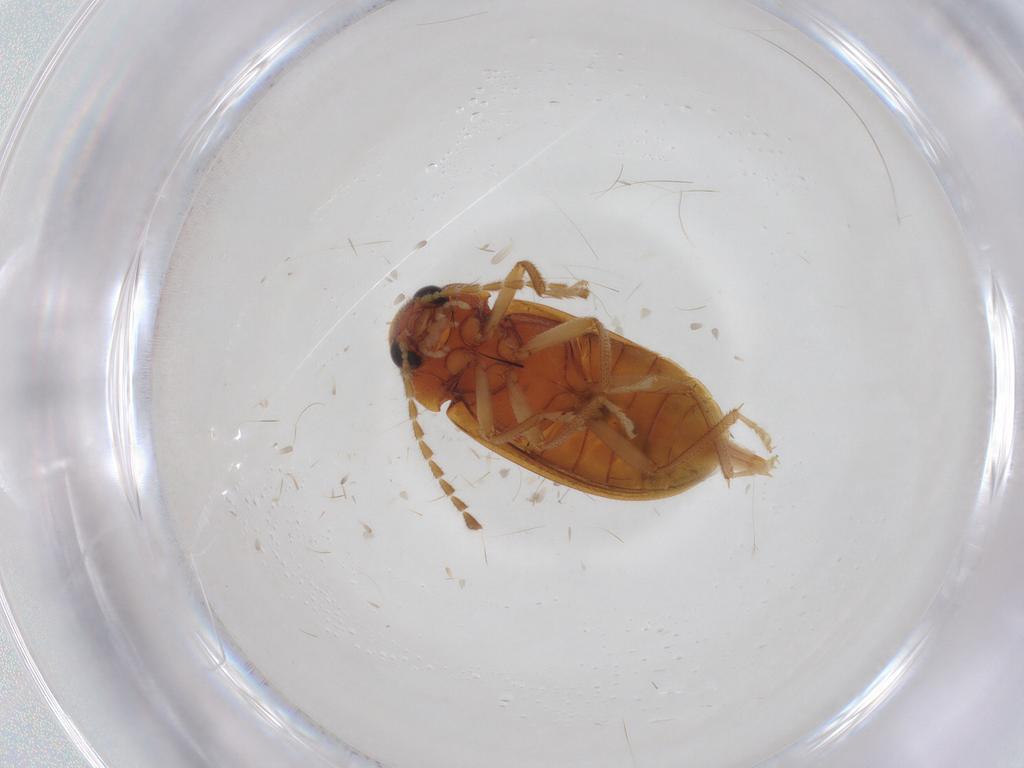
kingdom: Animalia
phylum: Arthropoda
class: Insecta
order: Coleoptera
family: Ptilodactylidae
